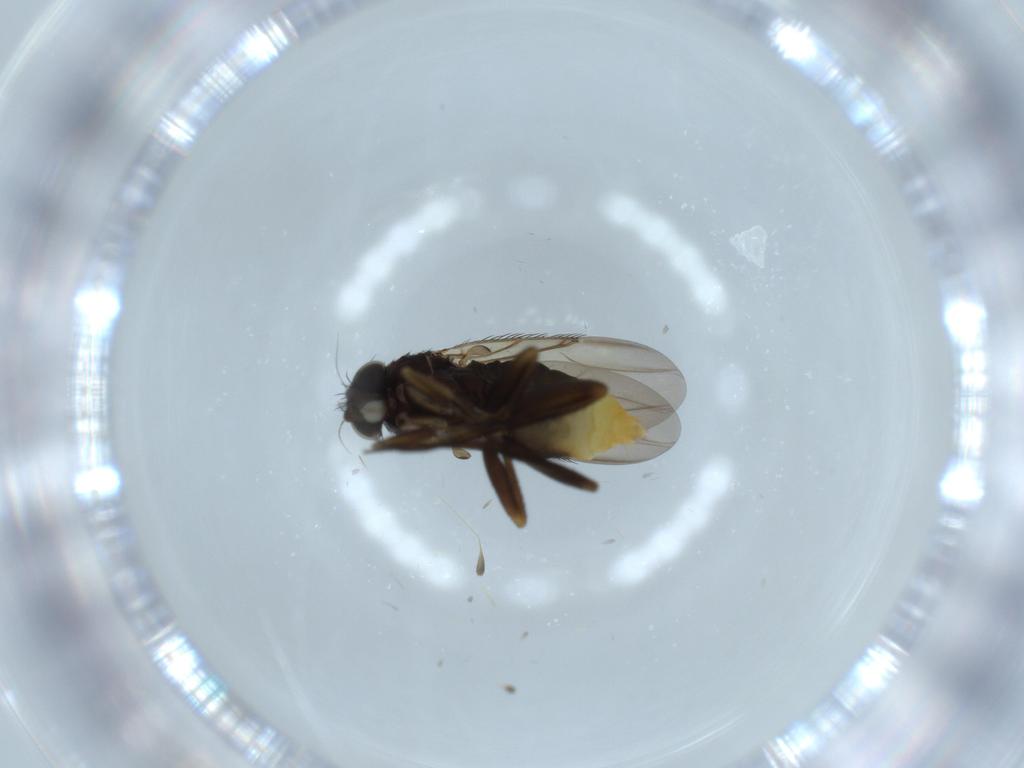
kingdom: Animalia
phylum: Arthropoda
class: Insecta
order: Diptera
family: Phoridae
